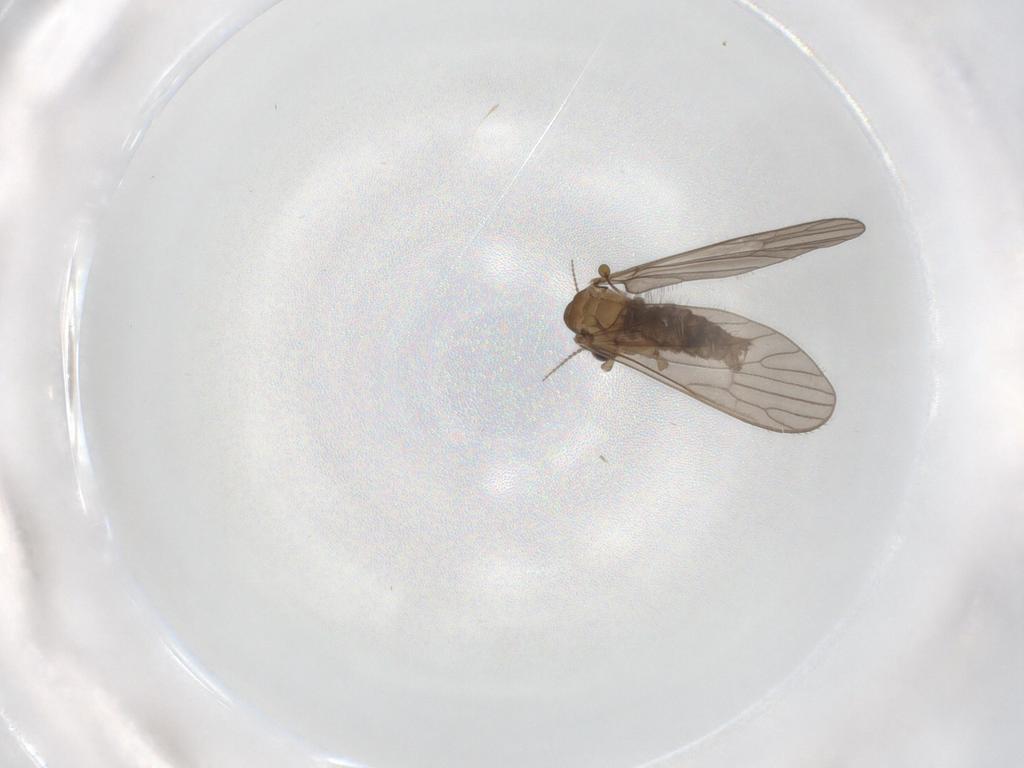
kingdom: Animalia
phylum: Arthropoda
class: Insecta
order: Diptera
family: Sciaridae
